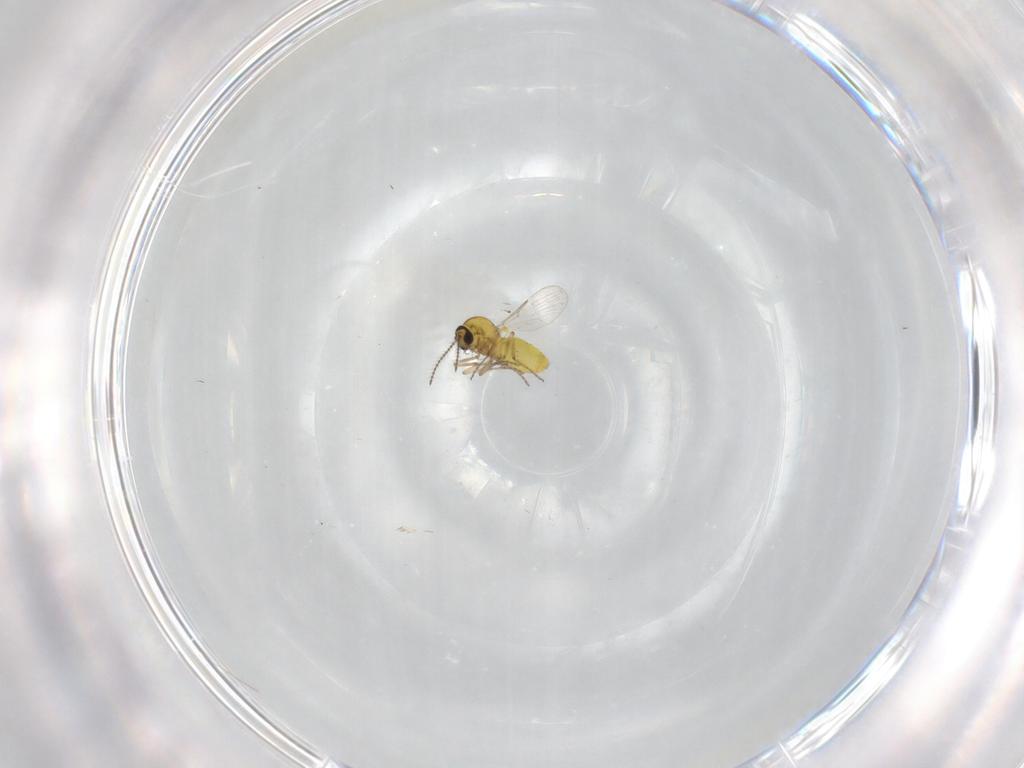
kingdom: Animalia
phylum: Arthropoda
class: Insecta
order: Diptera
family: Ceratopogonidae
